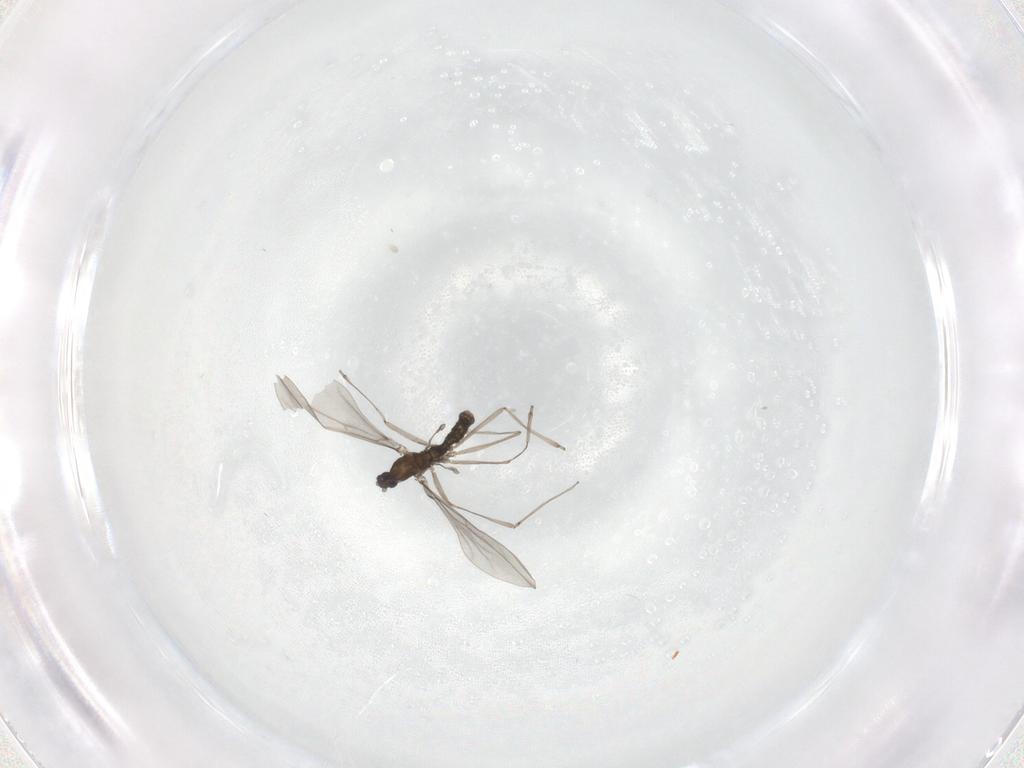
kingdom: Animalia
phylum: Arthropoda
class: Insecta
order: Diptera
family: Cecidomyiidae
